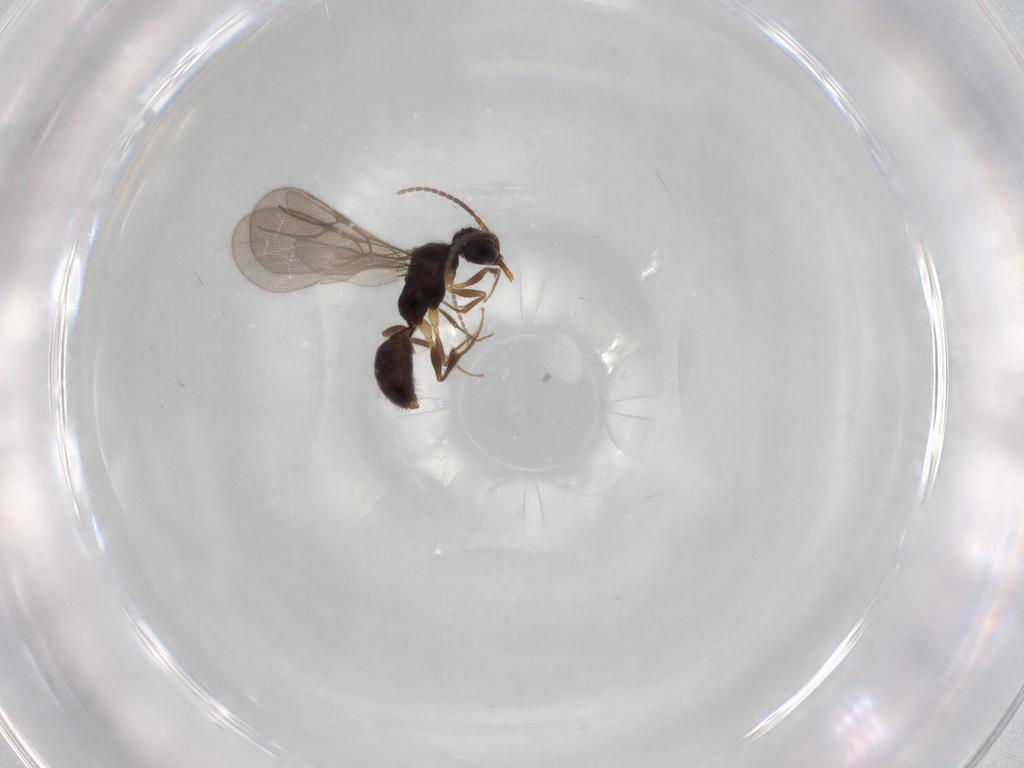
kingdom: Animalia
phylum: Arthropoda
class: Insecta
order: Hymenoptera
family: Bethylidae
